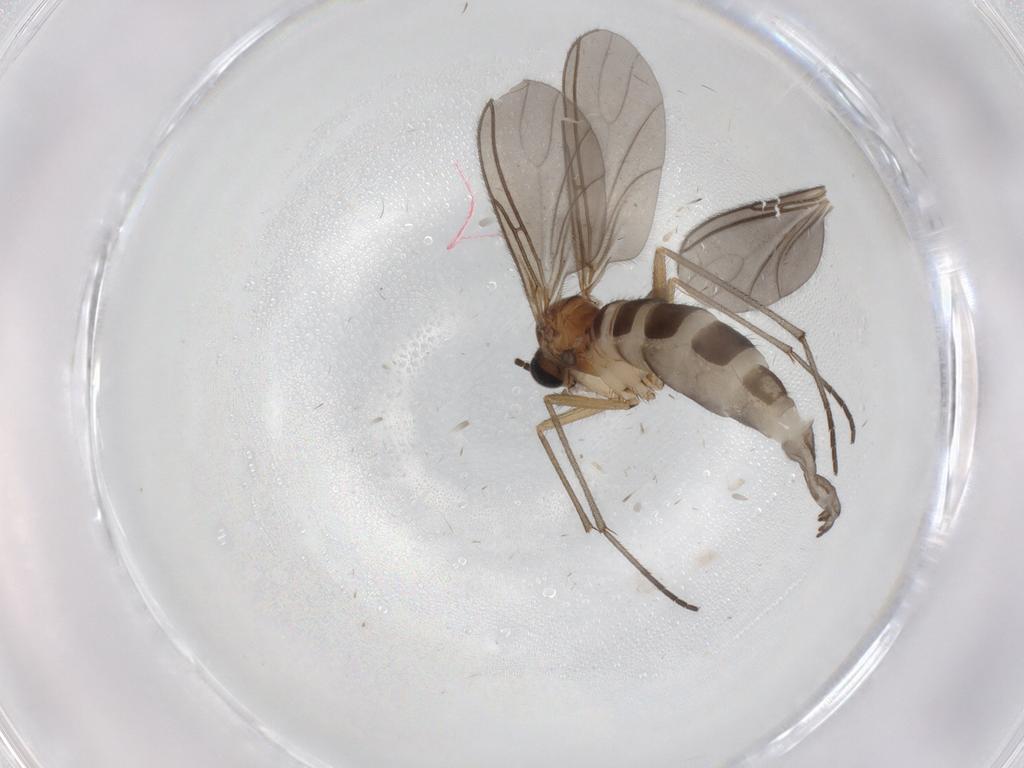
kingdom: Animalia
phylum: Arthropoda
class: Insecta
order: Diptera
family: Sciaridae
